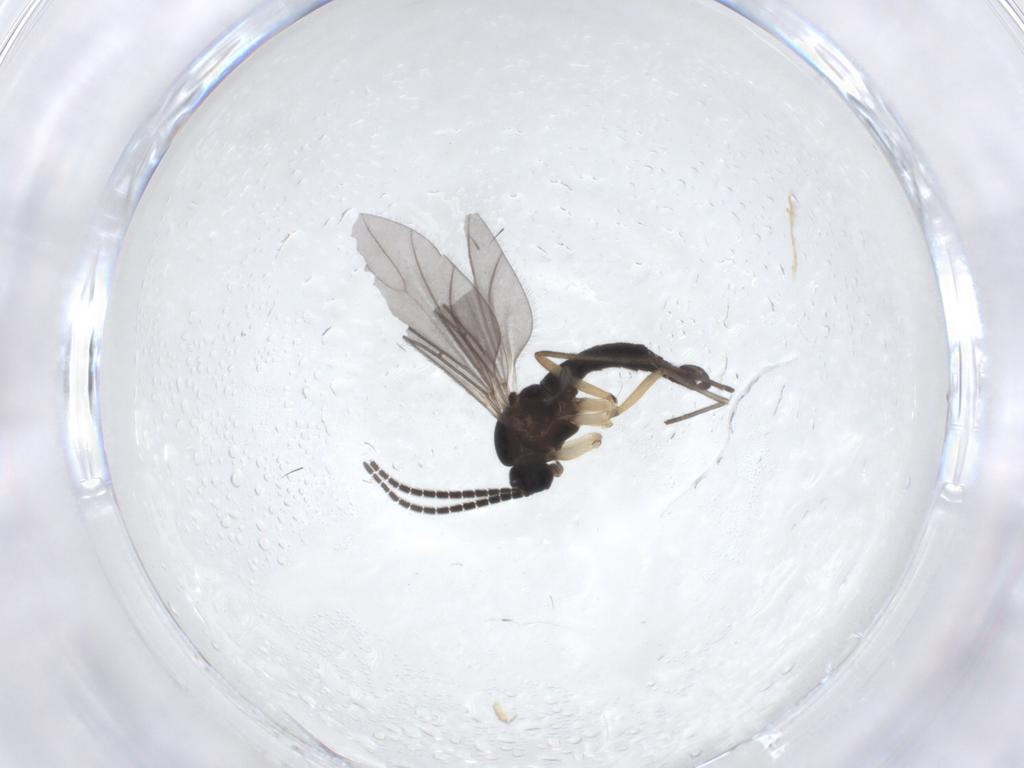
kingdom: Animalia
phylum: Arthropoda
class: Insecta
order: Diptera
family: Sciaridae
